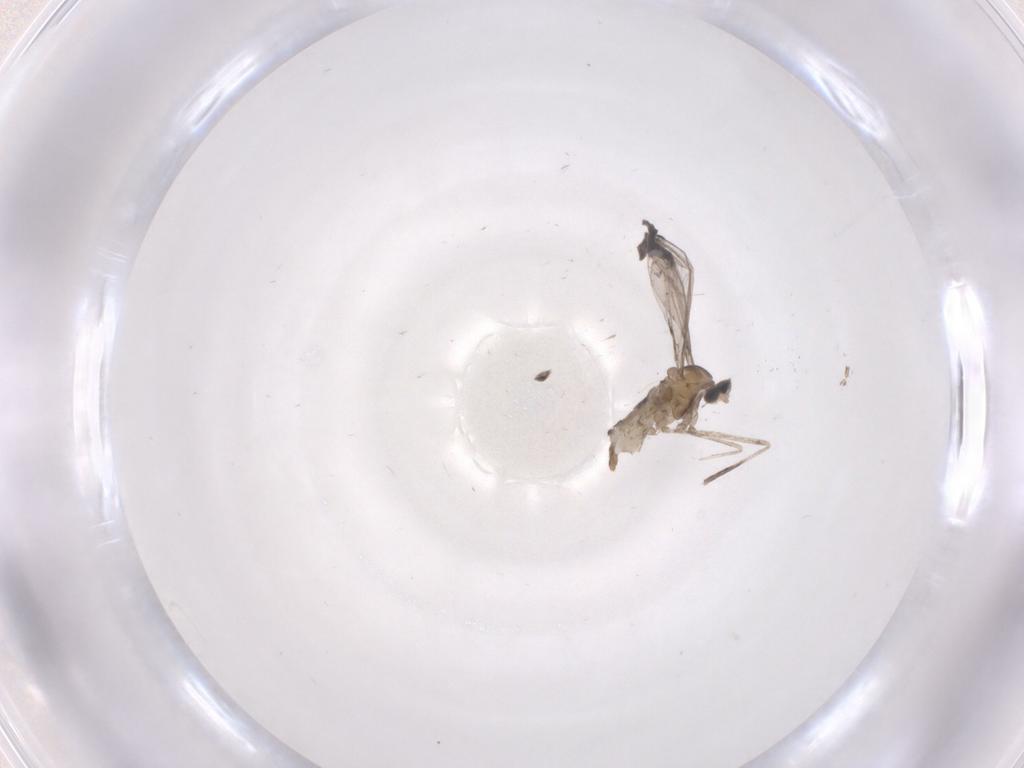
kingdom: Animalia
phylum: Arthropoda
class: Insecta
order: Diptera
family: Cecidomyiidae
